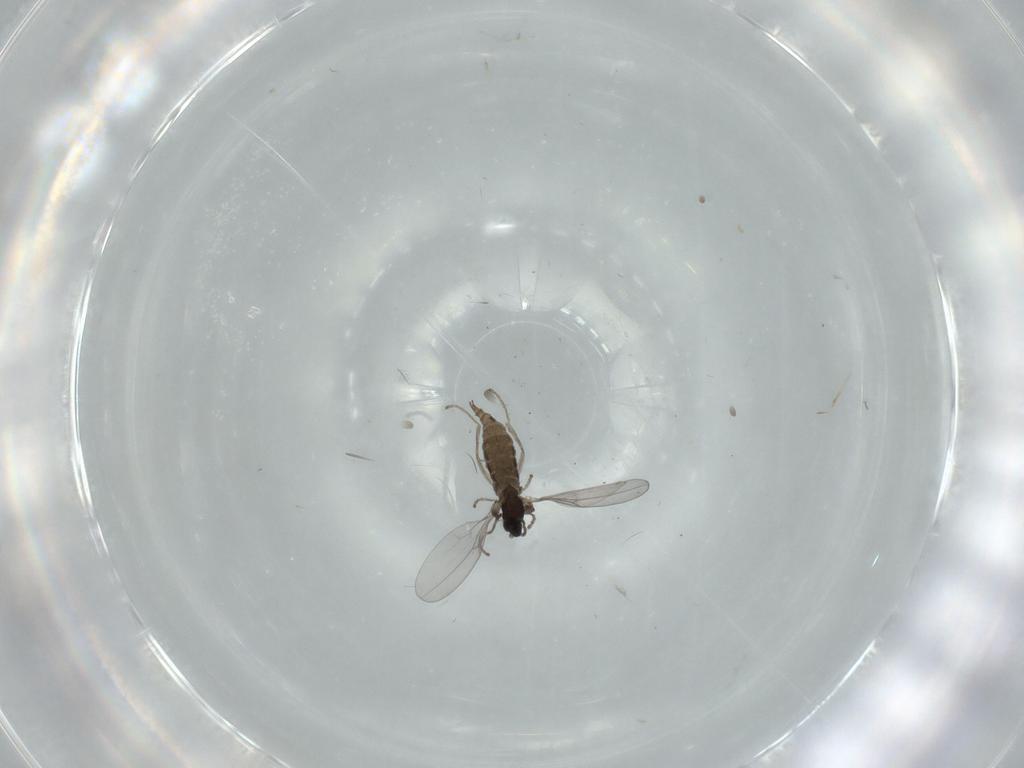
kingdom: Animalia
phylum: Arthropoda
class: Insecta
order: Diptera
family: Cecidomyiidae
